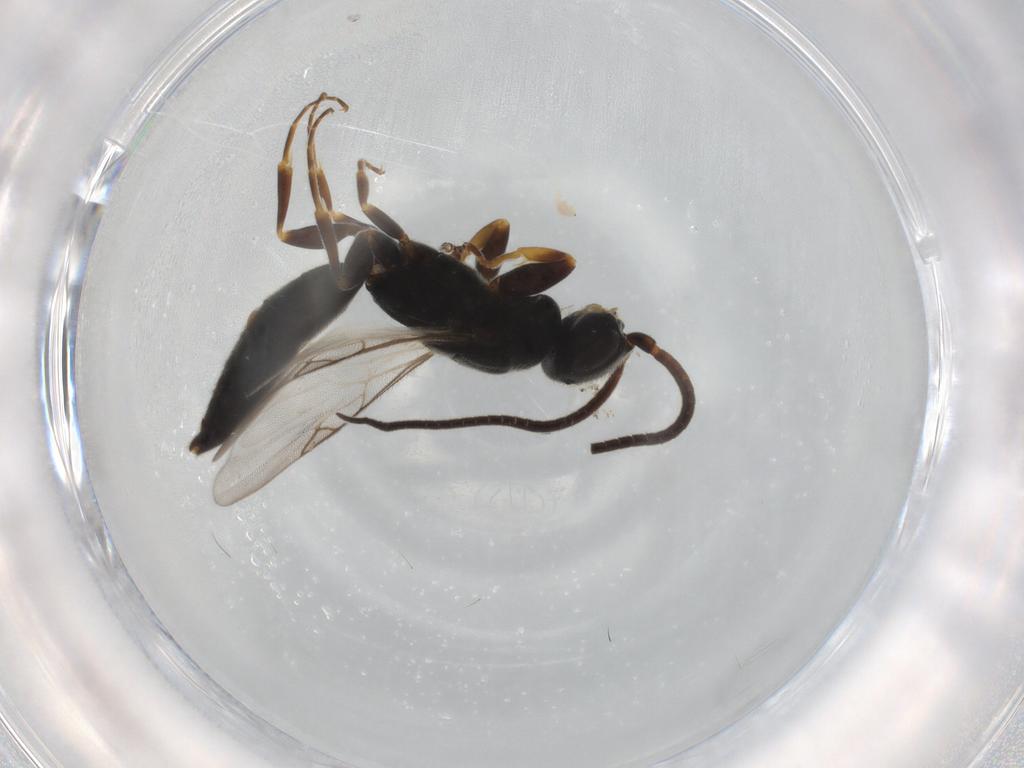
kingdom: Animalia
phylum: Arthropoda
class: Insecta
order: Hymenoptera
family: Sclerogibbidae
